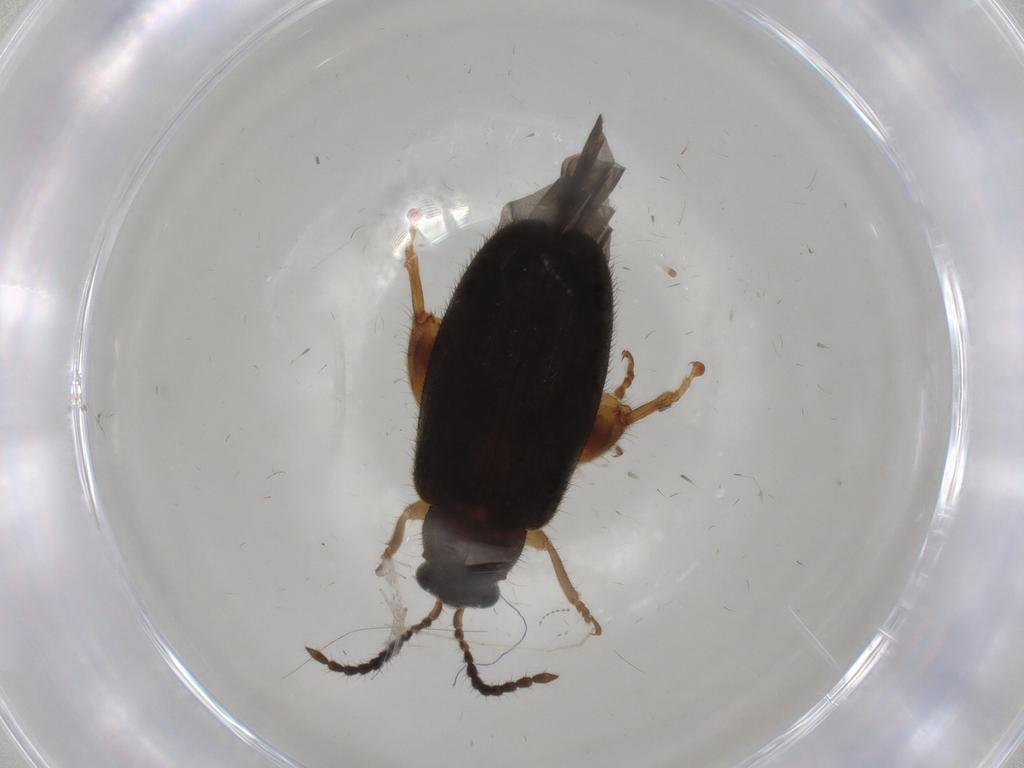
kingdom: Animalia
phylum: Arthropoda
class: Insecta
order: Coleoptera
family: Chrysomelidae
